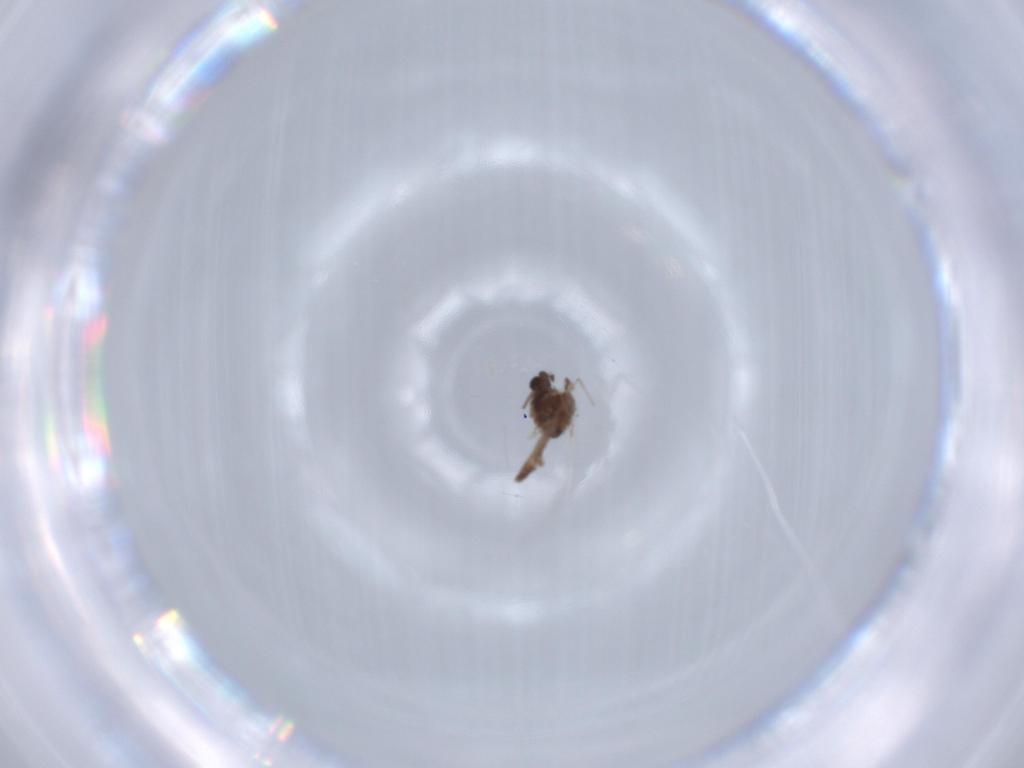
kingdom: Animalia
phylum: Arthropoda
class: Insecta
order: Diptera
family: Chironomidae
